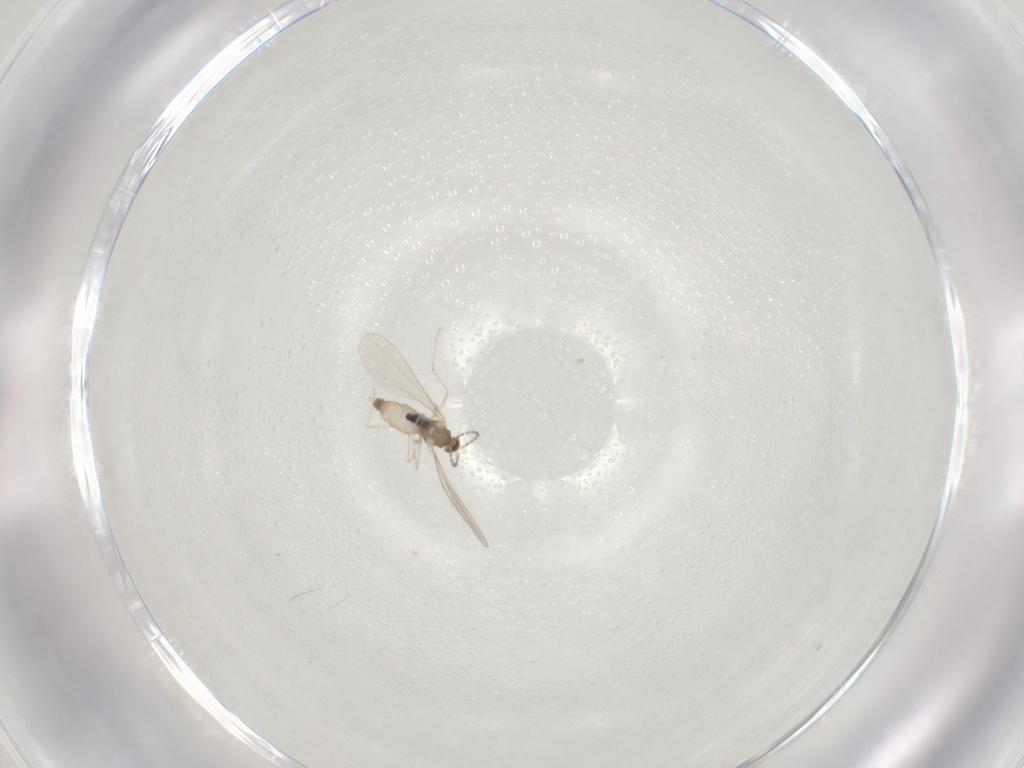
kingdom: Animalia
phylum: Arthropoda
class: Insecta
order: Diptera
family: Cecidomyiidae
